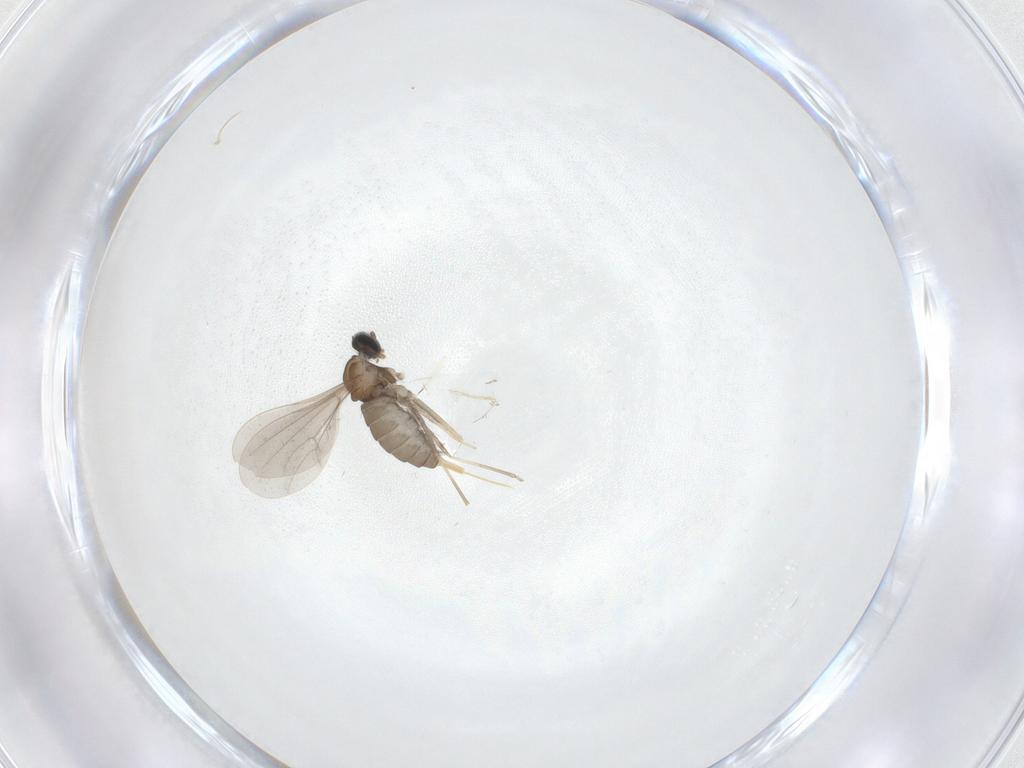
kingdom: Animalia
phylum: Arthropoda
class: Insecta
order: Diptera
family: Cecidomyiidae
